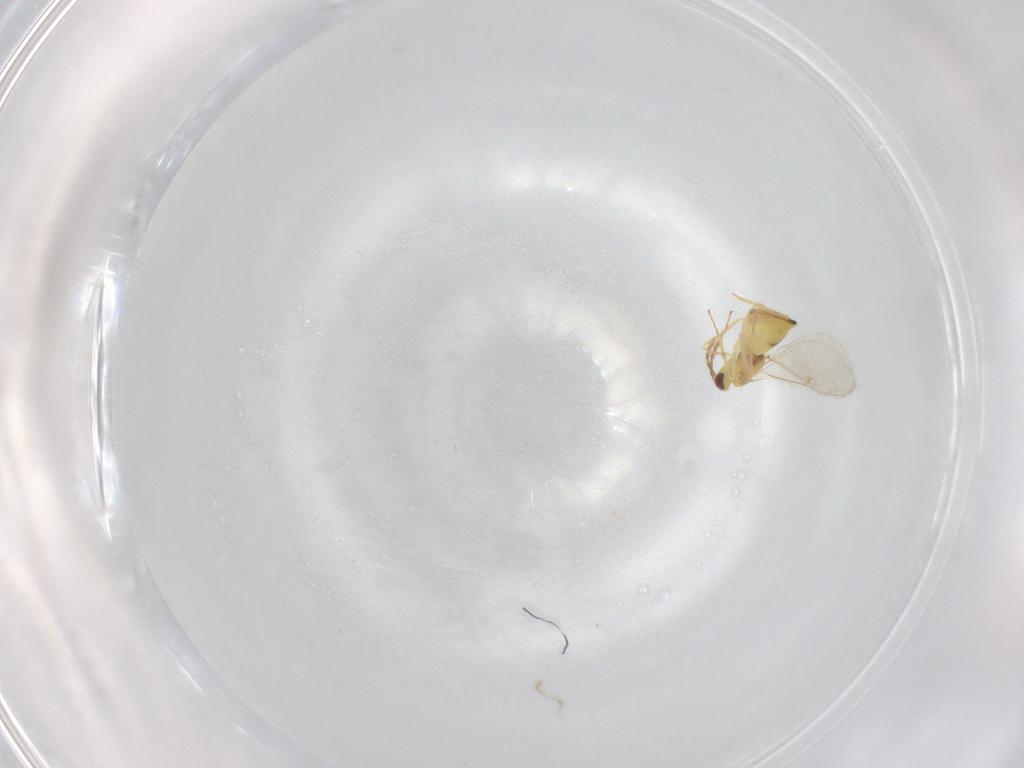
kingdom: Animalia
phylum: Arthropoda
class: Insecta
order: Hymenoptera
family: Eulophidae
